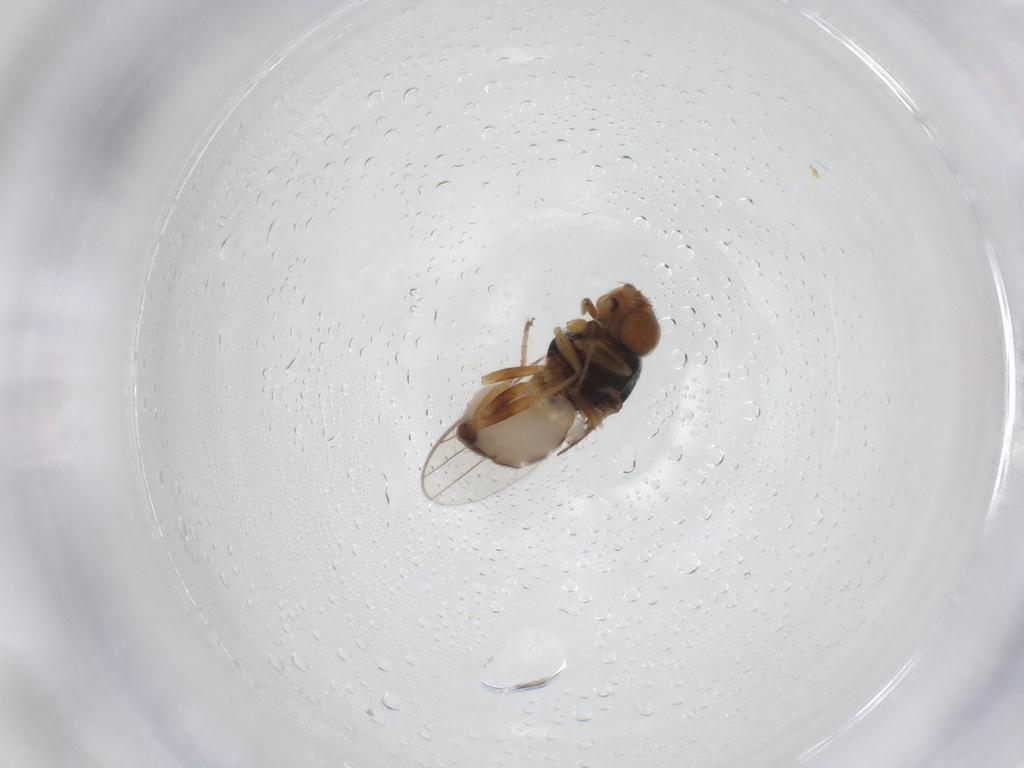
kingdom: Animalia
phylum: Arthropoda
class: Insecta
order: Diptera
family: Chloropidae
